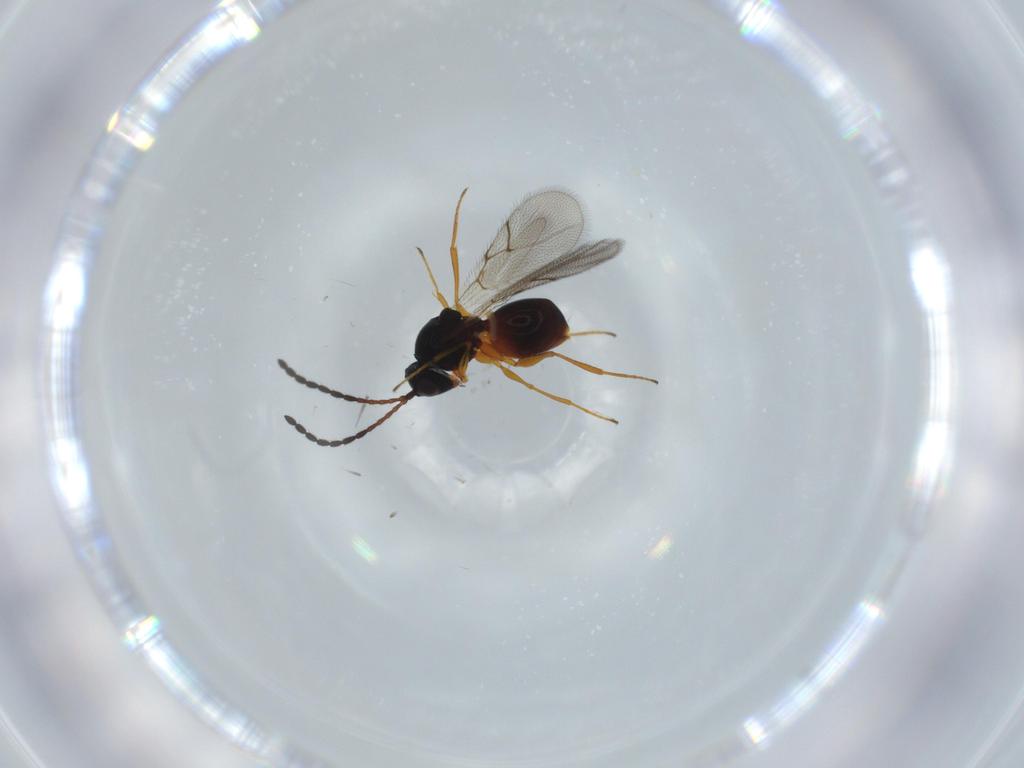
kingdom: Animalia
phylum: Arthropoda
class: Insecta
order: Hymenoptera
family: Figitidae
